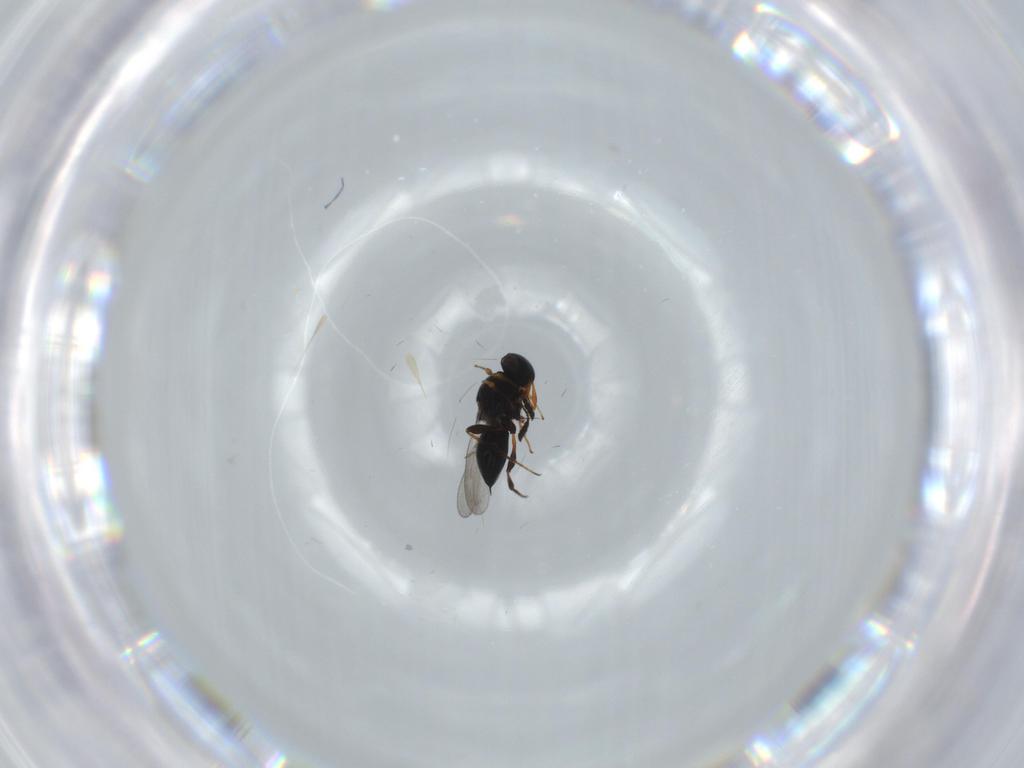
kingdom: Animalia
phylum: Arthropoda
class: Insecta
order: Hymenoptera
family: Platygastridae
